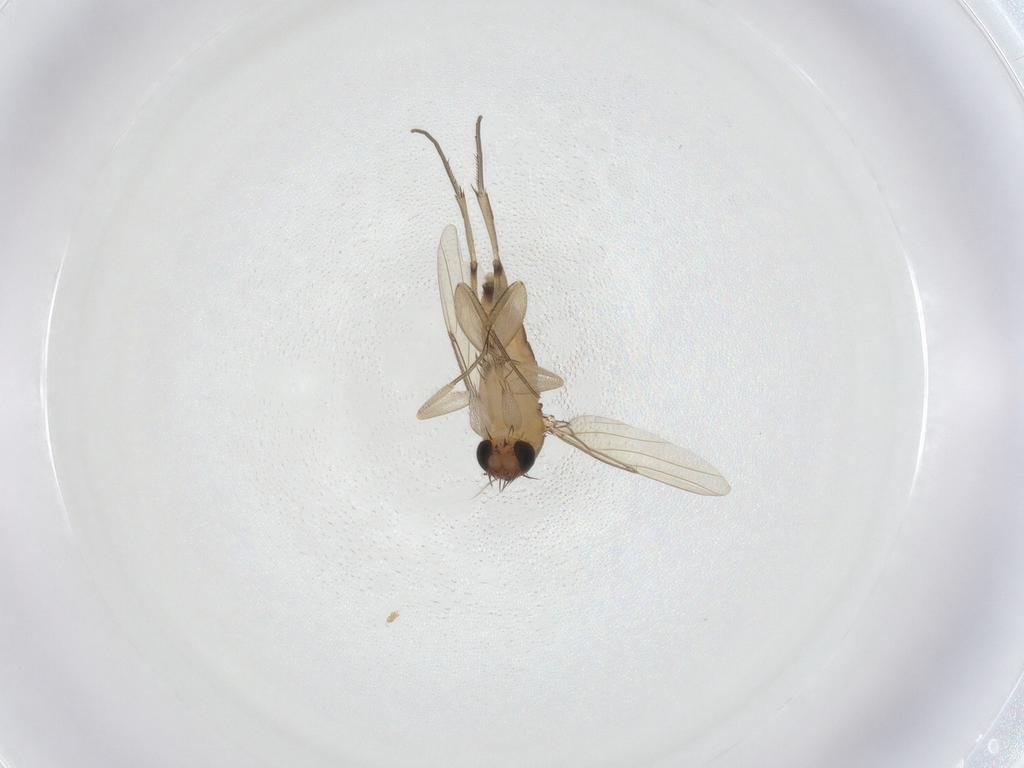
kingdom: Animalia
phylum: Arthropoda
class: Insecta
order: Diptera
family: Phoridae
